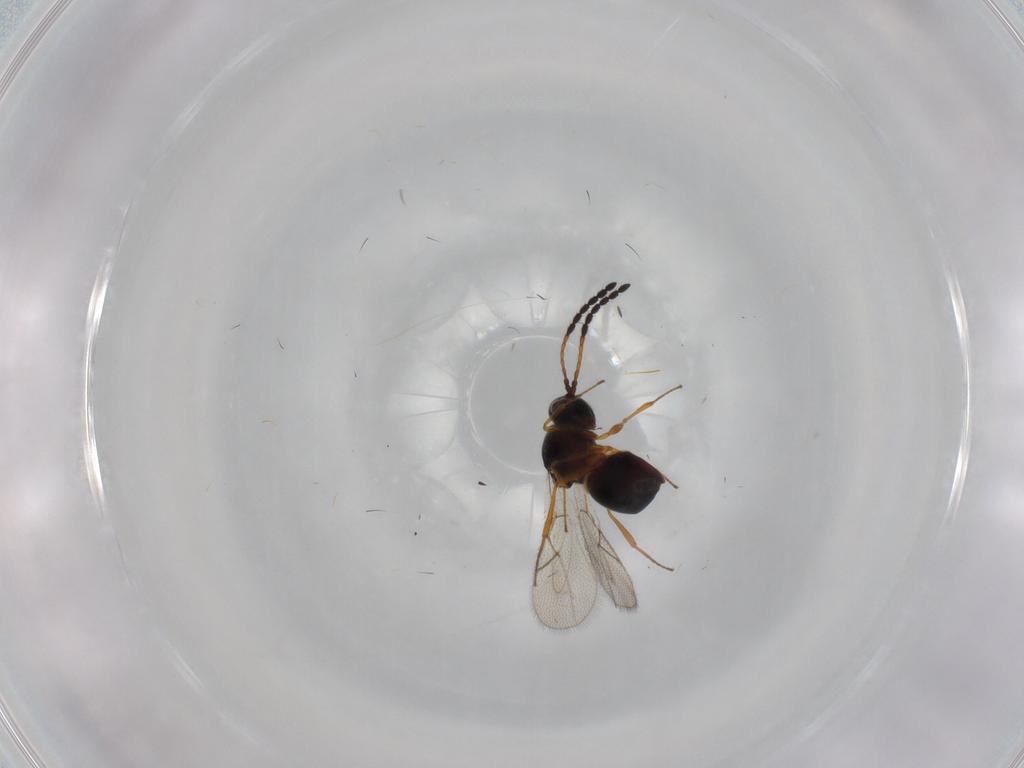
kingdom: Animalia
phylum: Arthropoda
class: Insecta
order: Hymenoptera
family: Figitidae
